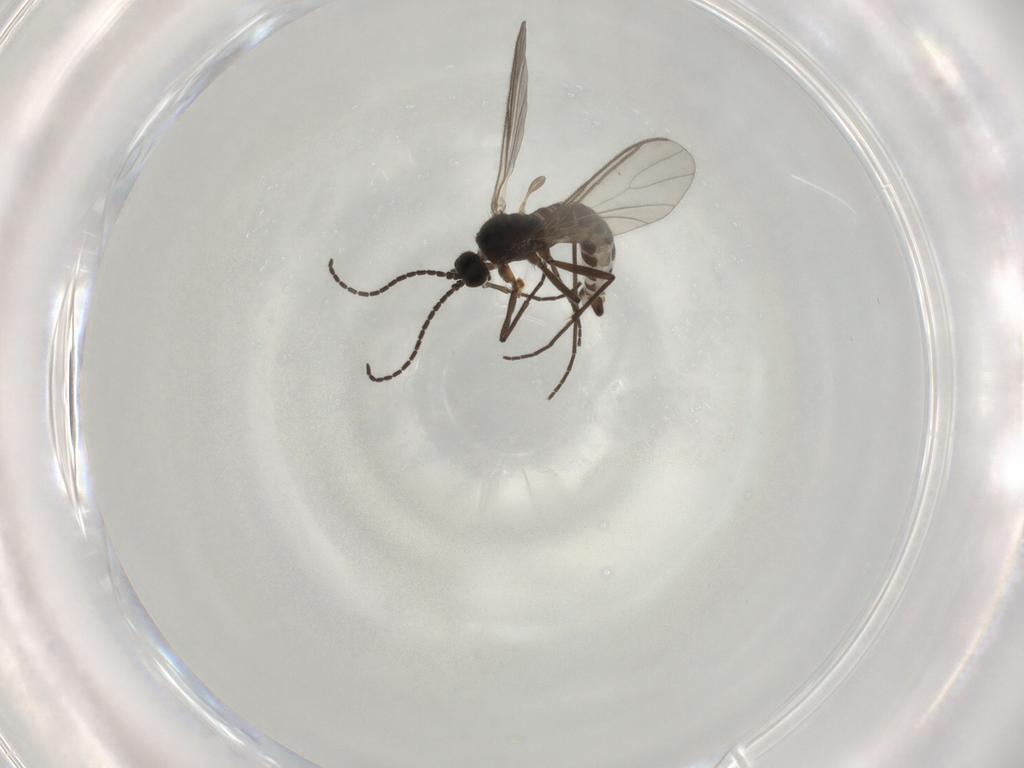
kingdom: Animalia
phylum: Arthropoda
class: Insecta
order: Diptera
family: Sciaridae
